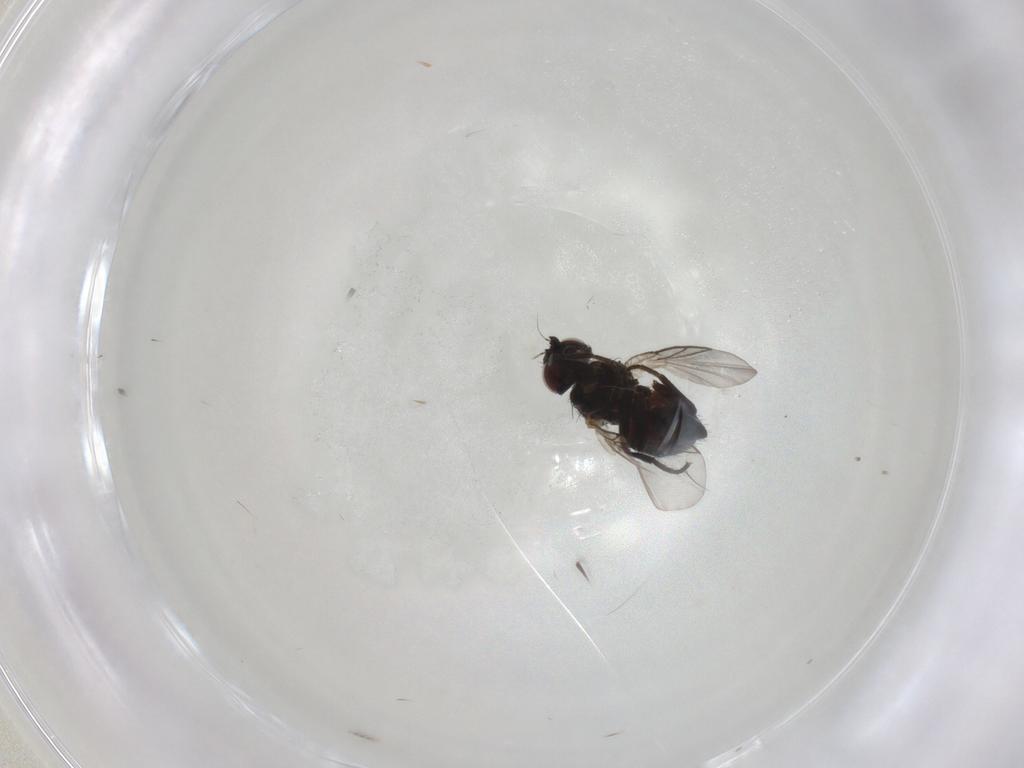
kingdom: Animalia
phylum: Arthropoda
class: Insecta
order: Diptera
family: Agromyzidae
